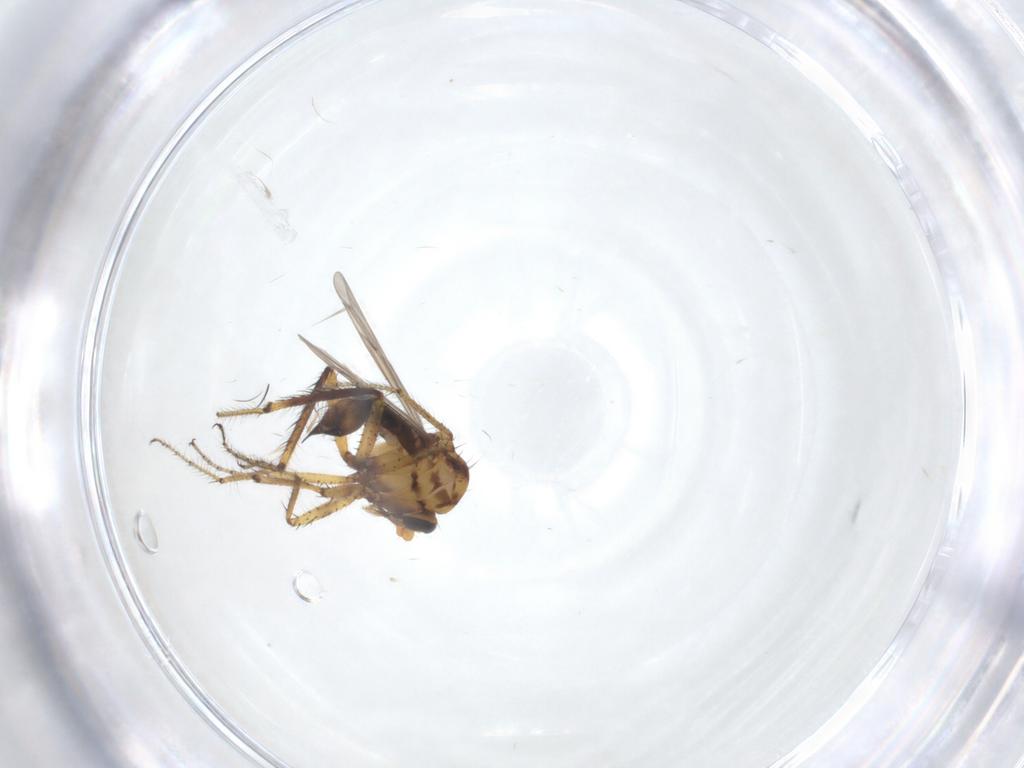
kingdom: Animalia
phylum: Arthropoda
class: Insecta
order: Diptera
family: Ceratopogonidae
